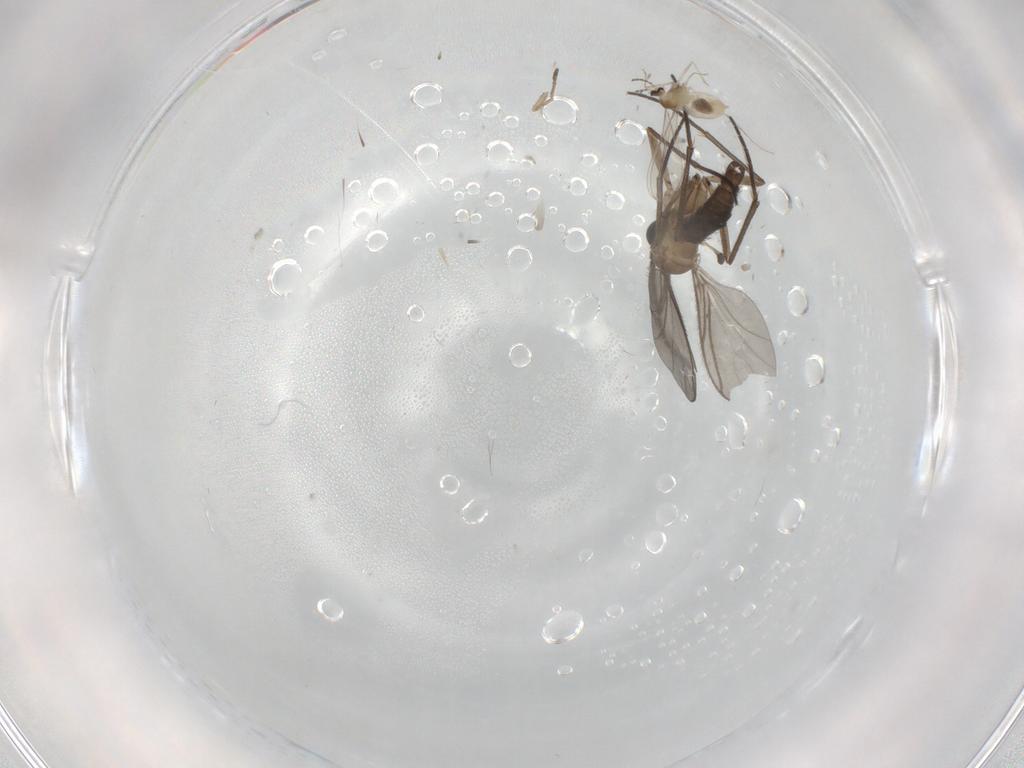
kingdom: Animalia
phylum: Arthropoda
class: Insecta
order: Diptera
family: Sciaridae
